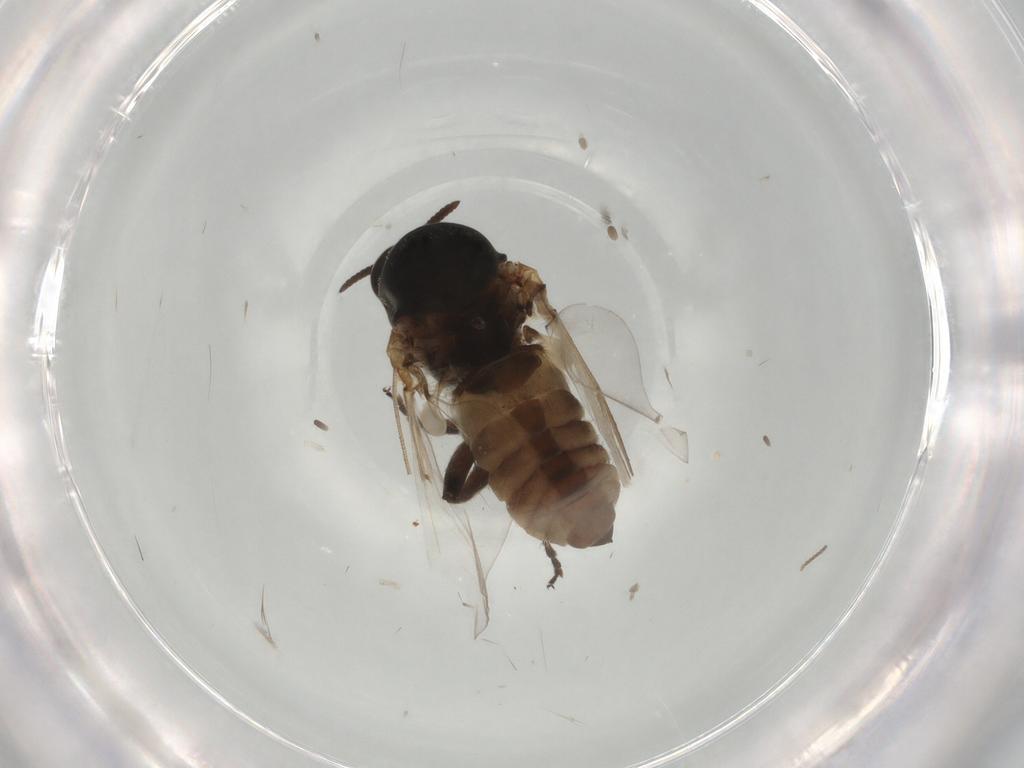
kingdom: Animalia
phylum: Arthropoda
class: Insecta
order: Diptera
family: Simuliidae
